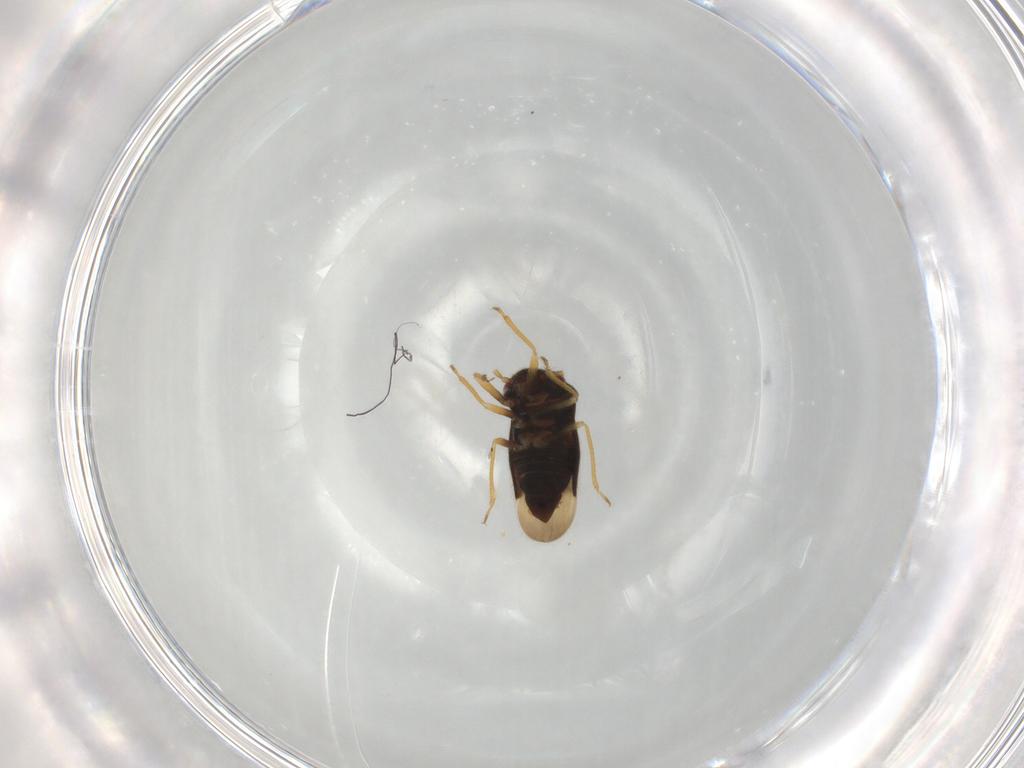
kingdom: Animalia
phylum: Arthropoda
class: Insecta
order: Hemiptera
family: Schizopteridae
